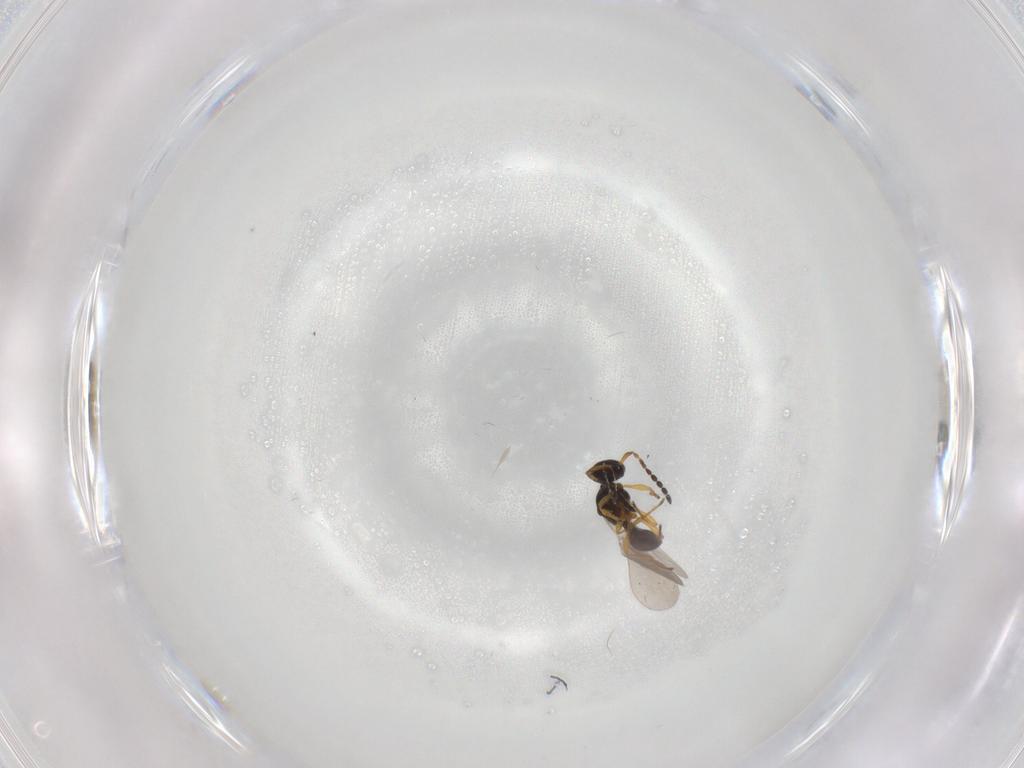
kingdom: Animalia
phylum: Arthropoda
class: Insecta
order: Hymenoptera
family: Platygastridae
